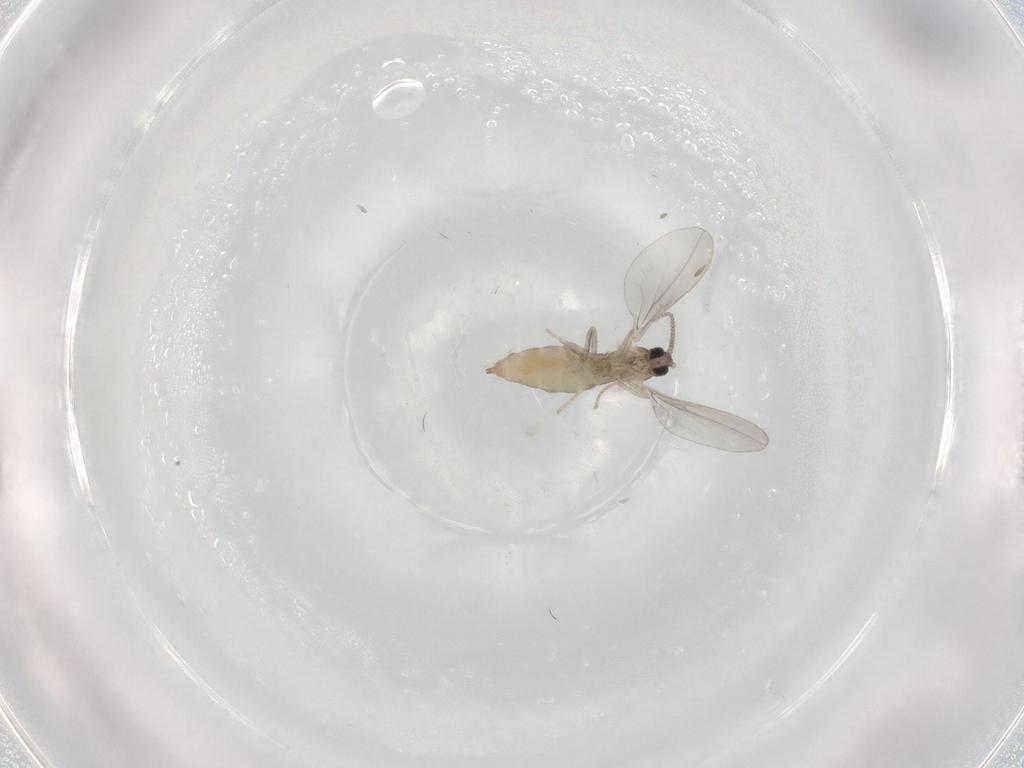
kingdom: Animalia
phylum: Arthropoda
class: Insecta
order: Diptera
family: Cecidomyiidae
